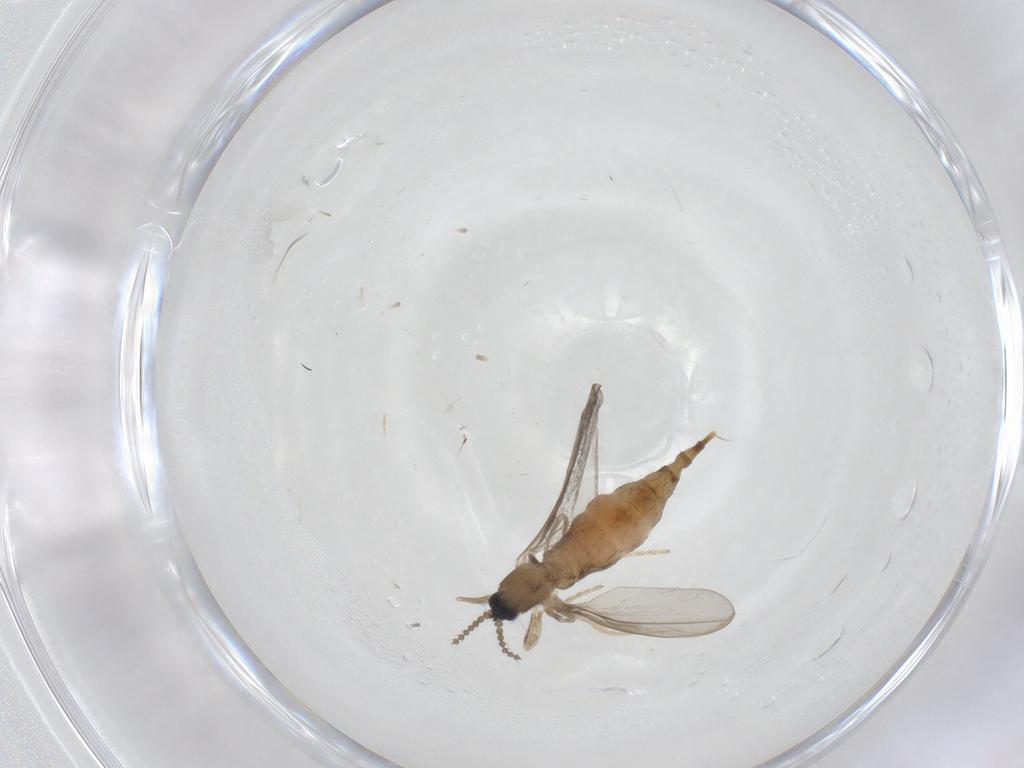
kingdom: Animalia
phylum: Arthropoda
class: Insecta
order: Diptera
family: Cecidomyiidae
